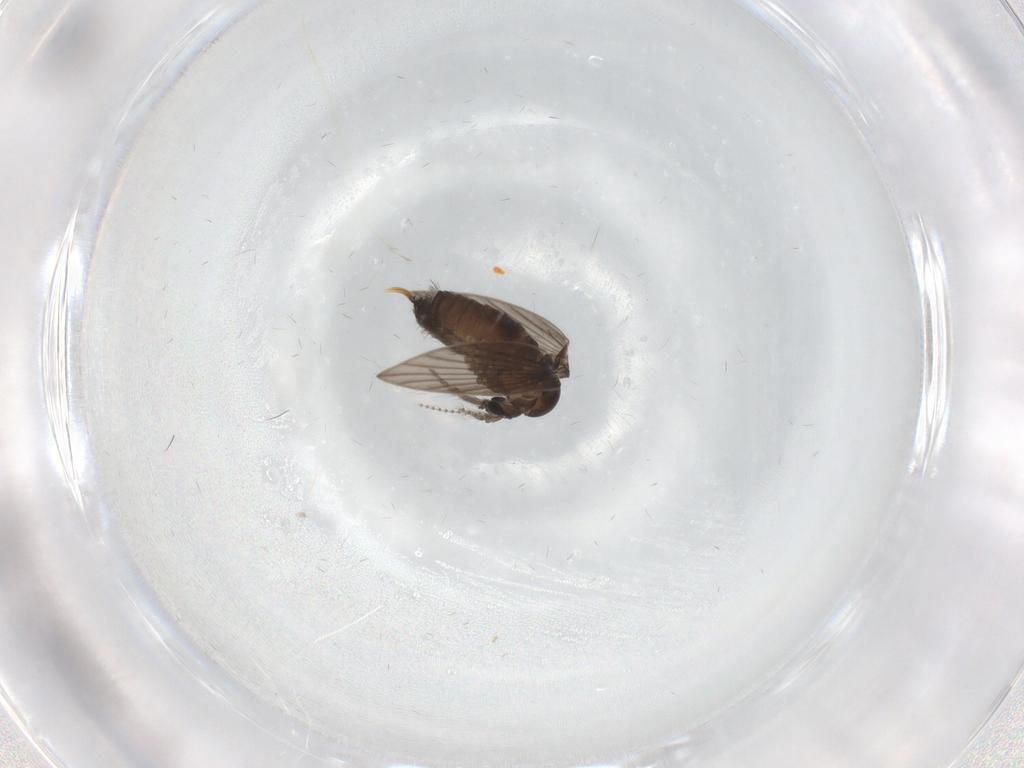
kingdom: Animalia
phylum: Arthropoda
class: Insecta
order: Diptera
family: Psychodidae
